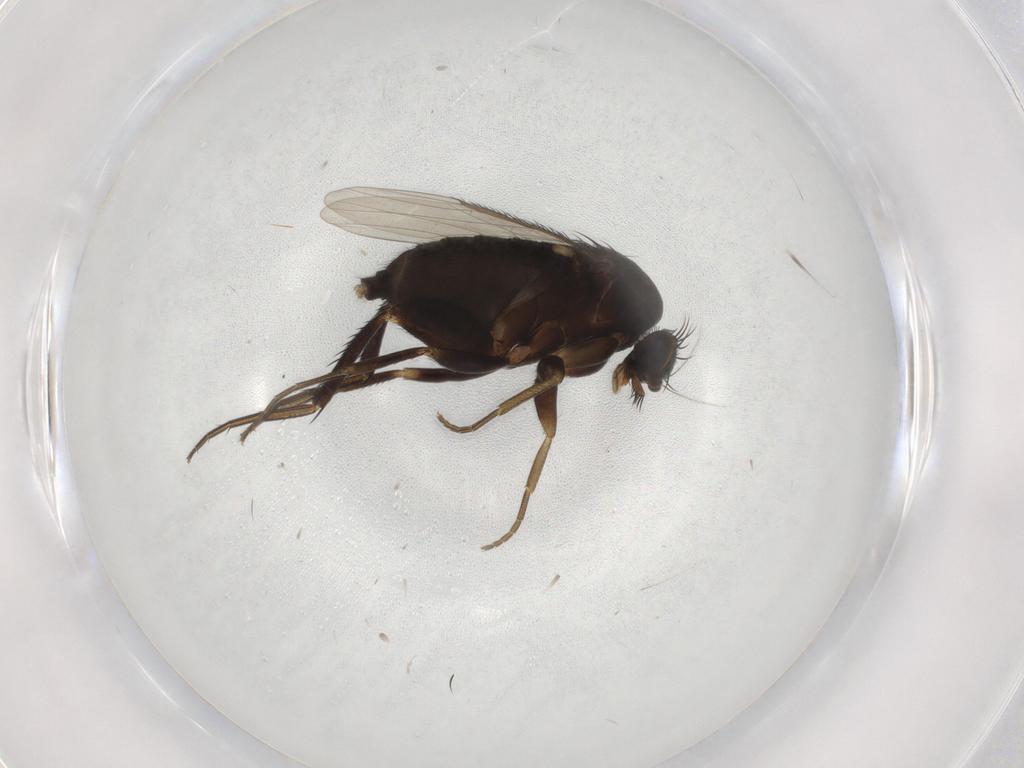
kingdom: Animalia
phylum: Arthropoda
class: Insecta
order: Diptera
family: Phoridae
